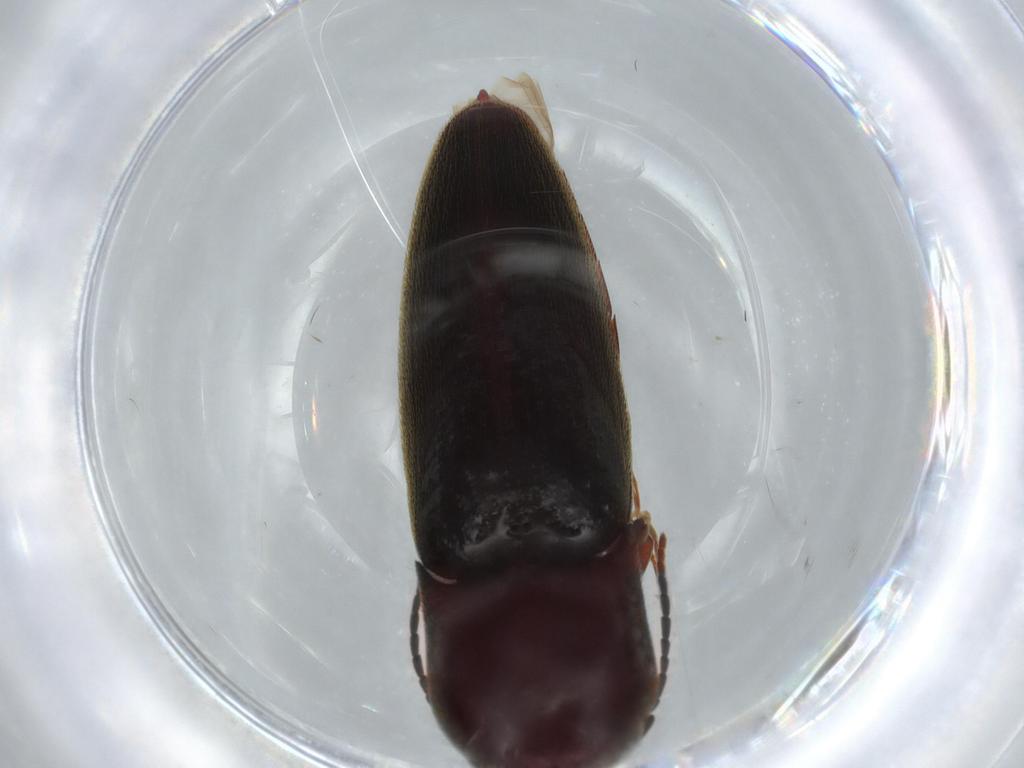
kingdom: Animalia
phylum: Arthropoda
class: Insecta
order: Coleoptera
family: Eucnemidae
